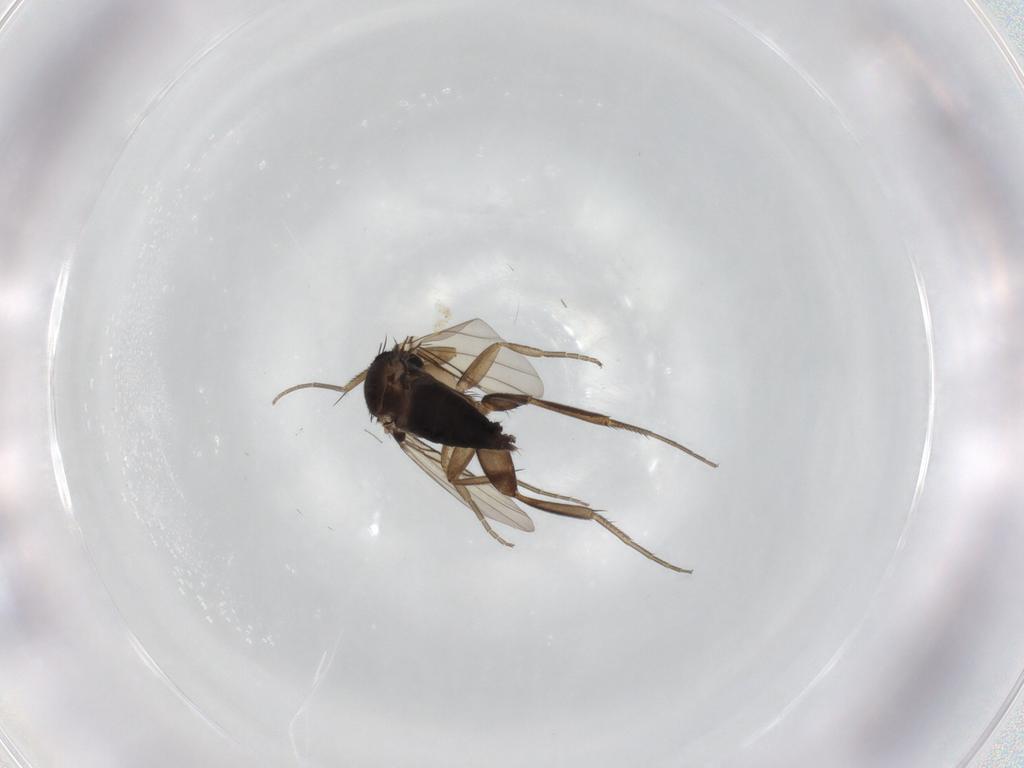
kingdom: Animalia
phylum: Arthropoda
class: Insecta
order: Diptera
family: Phoridae
